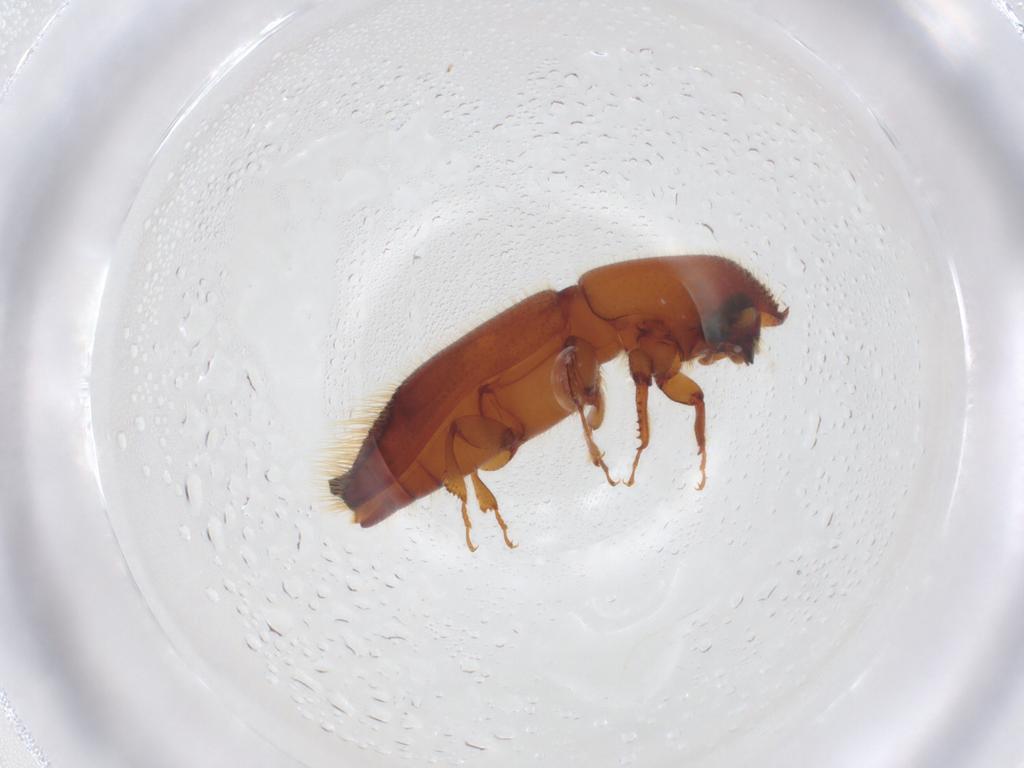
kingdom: Animalia
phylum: Arthropoda
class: Insecta
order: Coleoptera
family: Curculionidae
